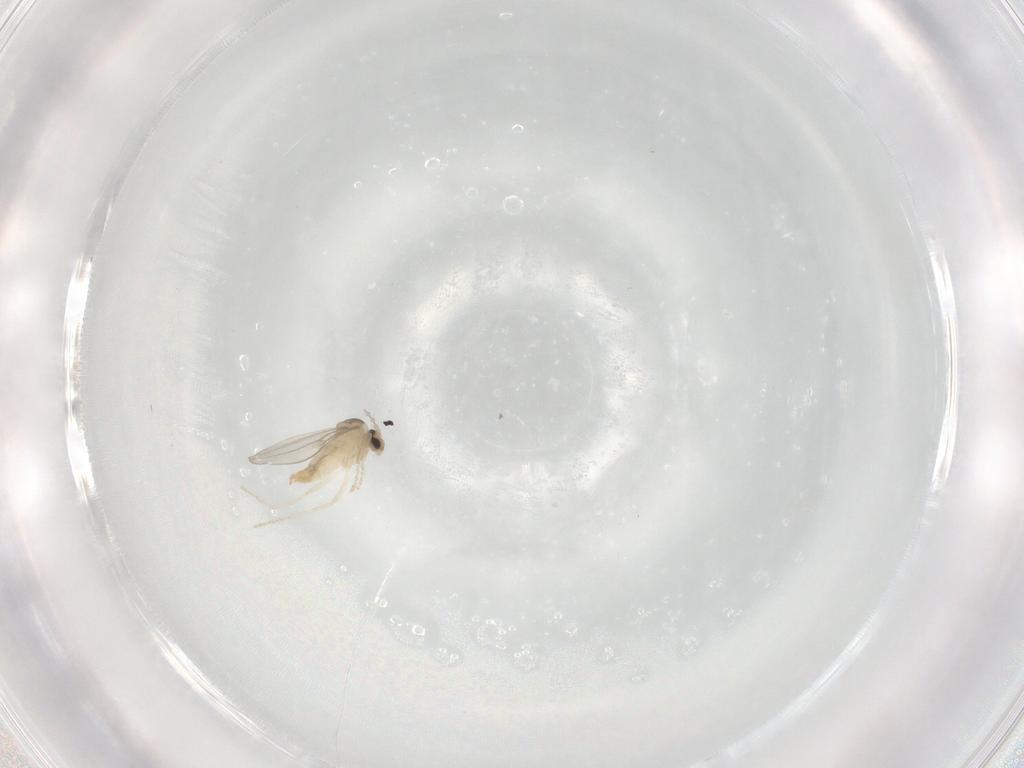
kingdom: Animalia
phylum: Arthropoda
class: Insecta
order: Diptera
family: Cecidomyiidae
